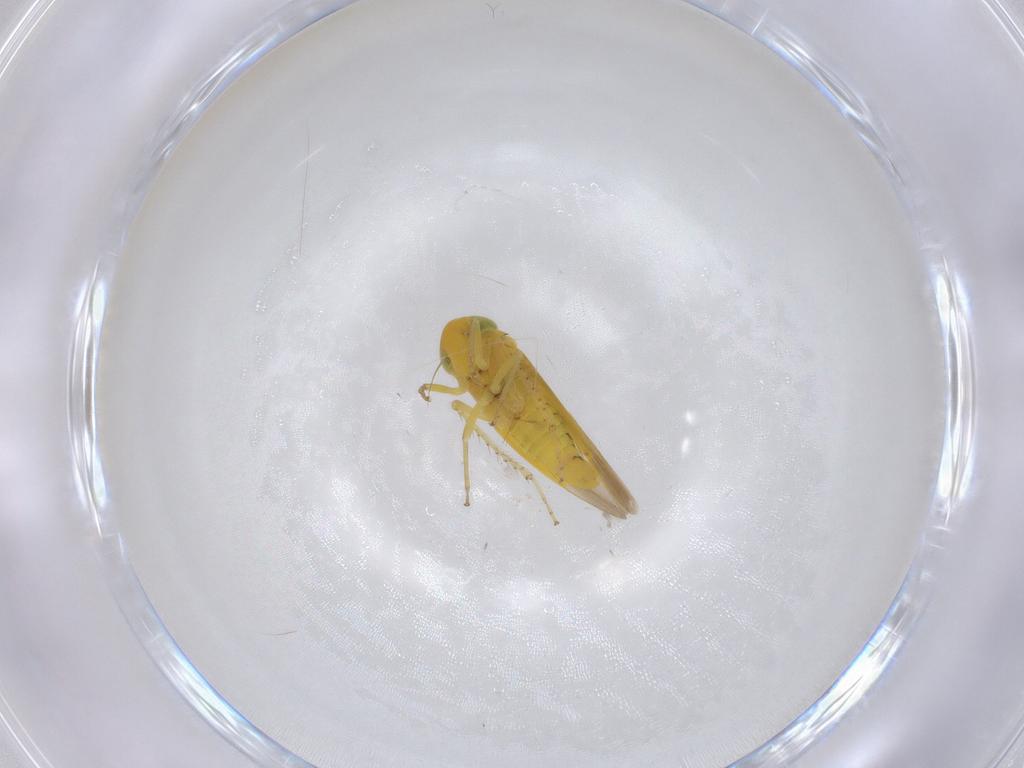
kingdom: Animalia
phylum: Arthropoda
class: Insecta
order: Hemiptera
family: Cicadellidae
